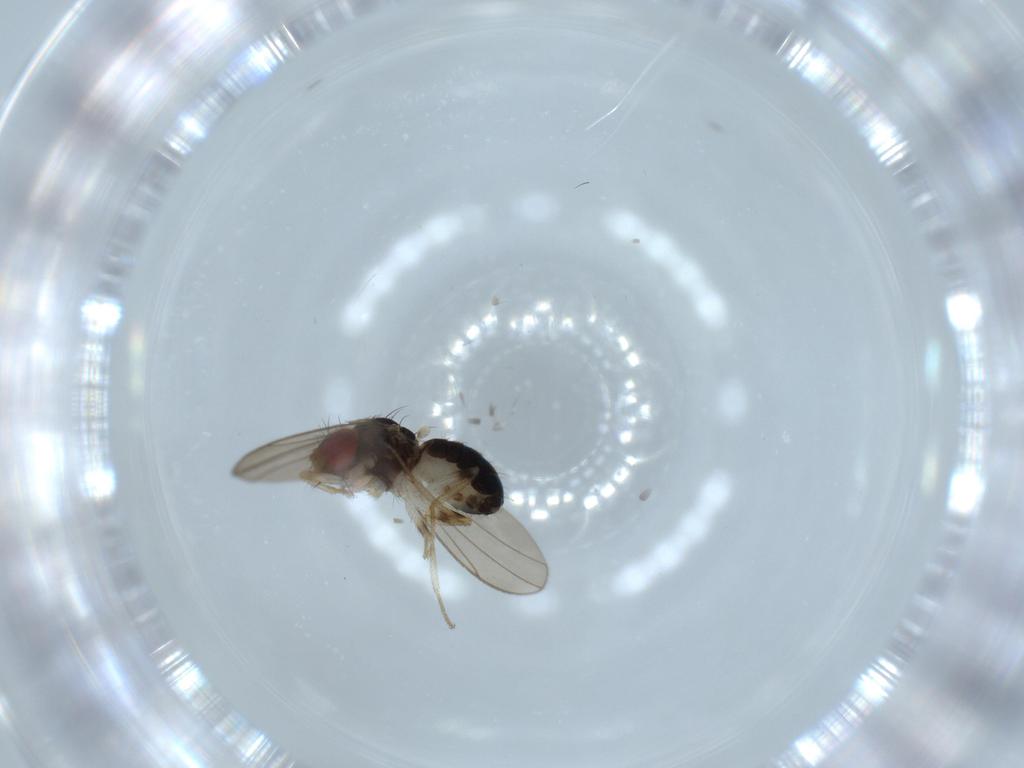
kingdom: Animalia
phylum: Arthropoda
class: Insecta
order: Diptera
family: Drosophilidae
